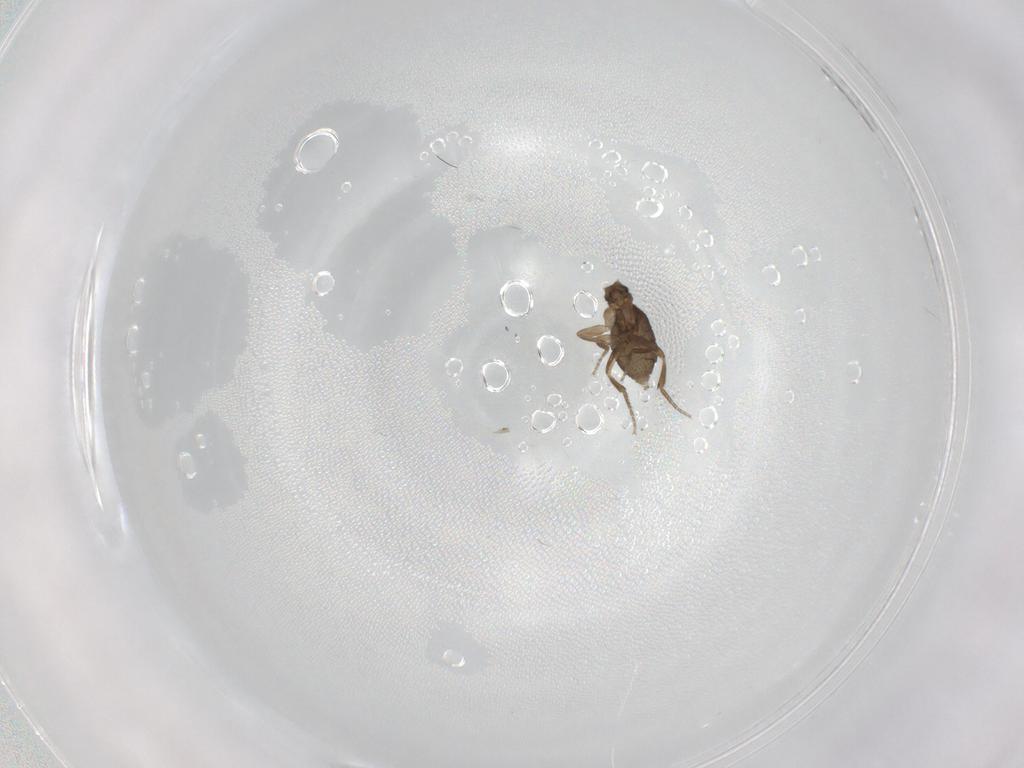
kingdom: Animalia
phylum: Arthropoda
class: Insecta
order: Diptera
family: Phoridae
